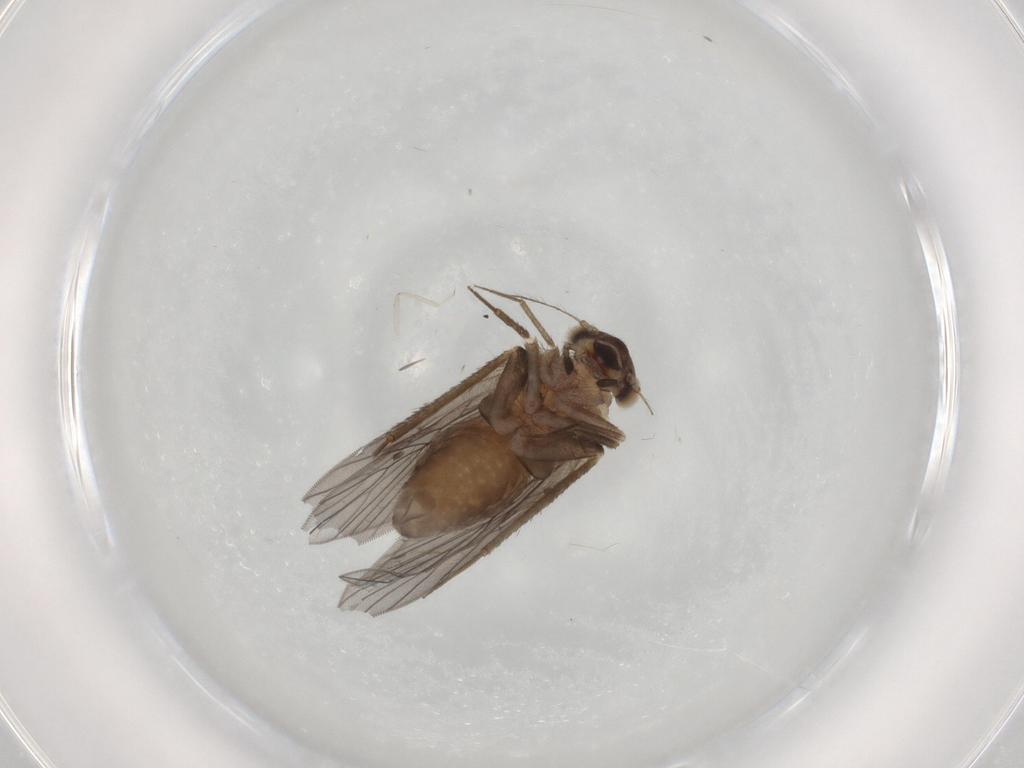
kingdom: Animalia
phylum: Arthropoda
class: Insecta
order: Psocodea
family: Lepidopsocidae
